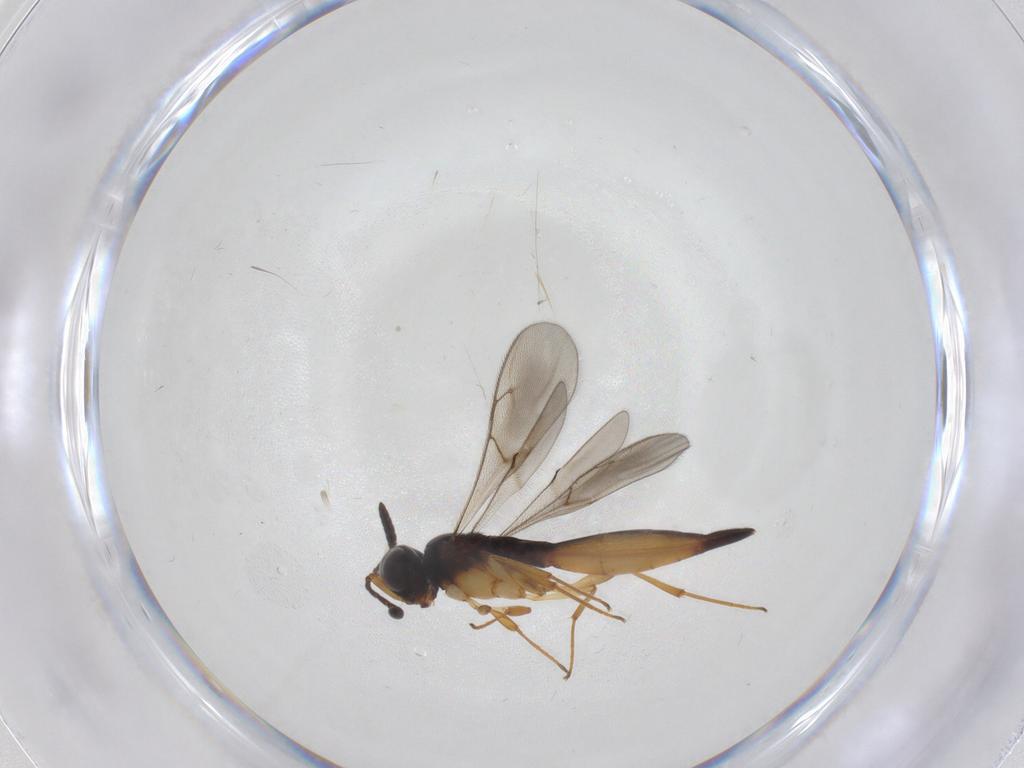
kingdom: Animalia
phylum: Arthropoda
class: Insecta
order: Hymenoptera
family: Scelionidae
